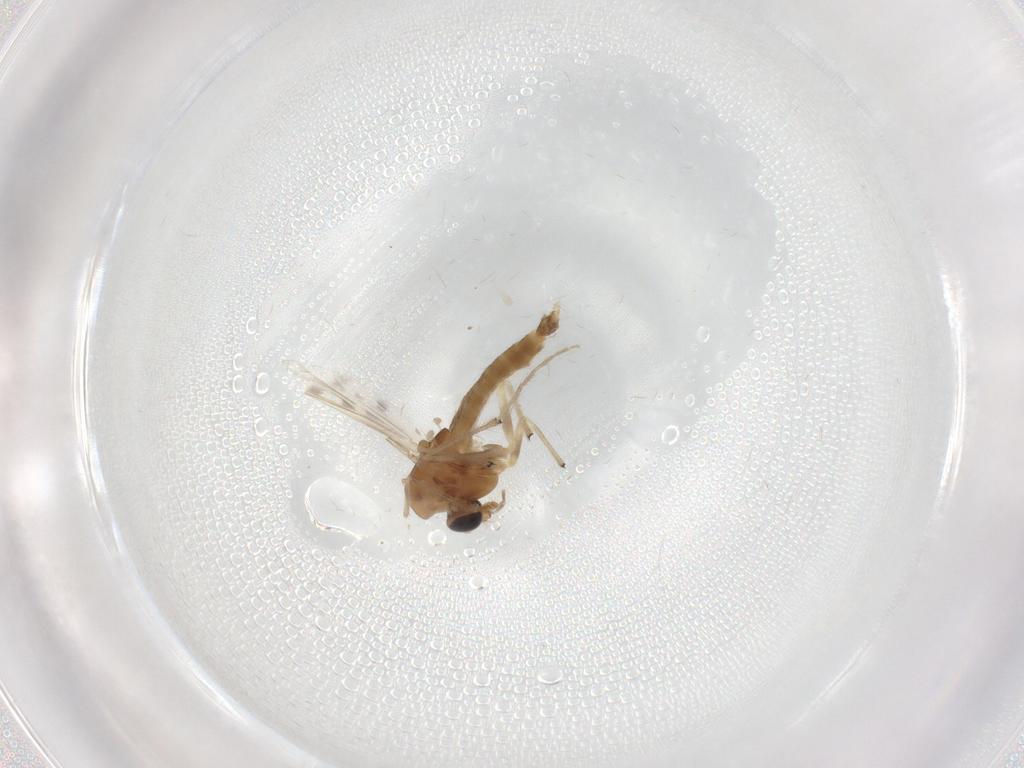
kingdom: Animalia
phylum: Arthropoda
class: Insecta
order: Diptera
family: Chironomidae
